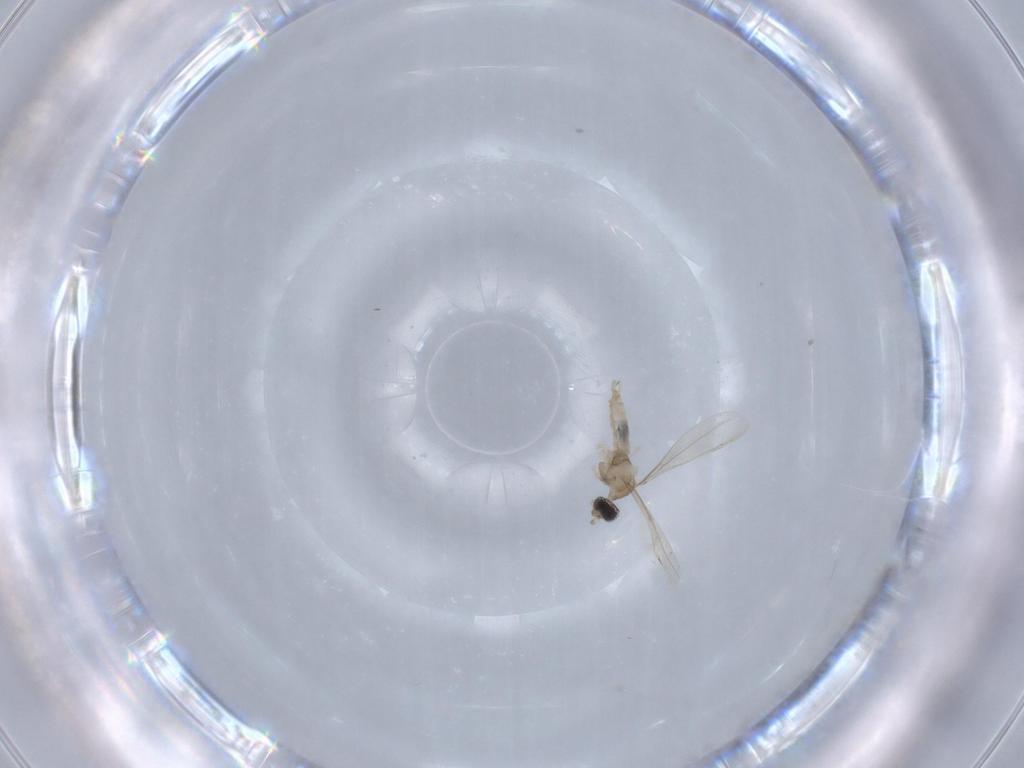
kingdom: Animalia
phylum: Arthropoda
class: Insecta
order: Diptera
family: Cecidomyiidae
